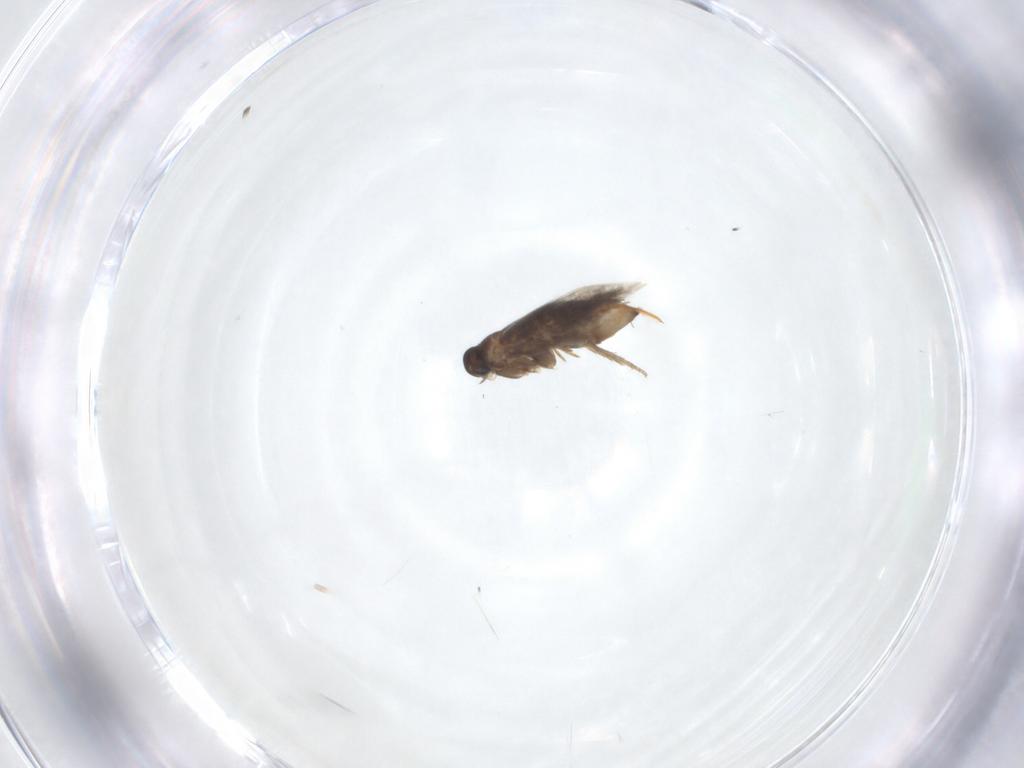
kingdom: Animalia
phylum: Arthropoda
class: Insecta
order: Lepidoptera
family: Heliozelidae
